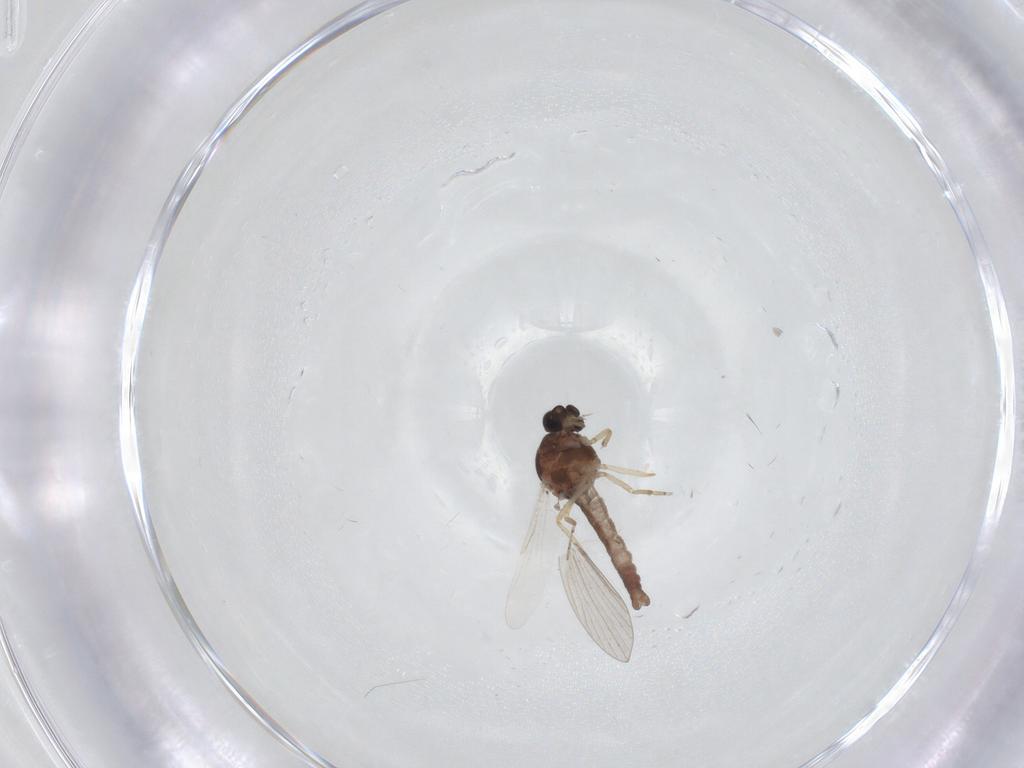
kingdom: Animalia
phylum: Arthropoda
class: Insecta
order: Diptera
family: Ceratopogonidae
